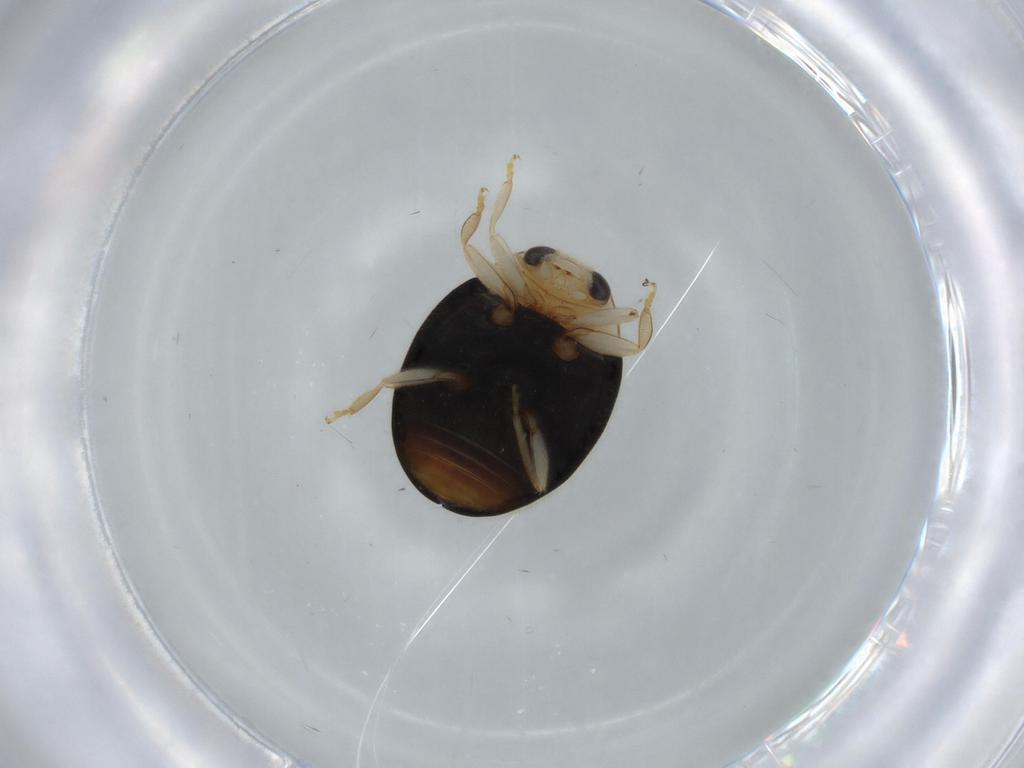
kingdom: Animalia
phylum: Arthropoda
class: Insecta
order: Coleoptera
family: Coccinellidae
